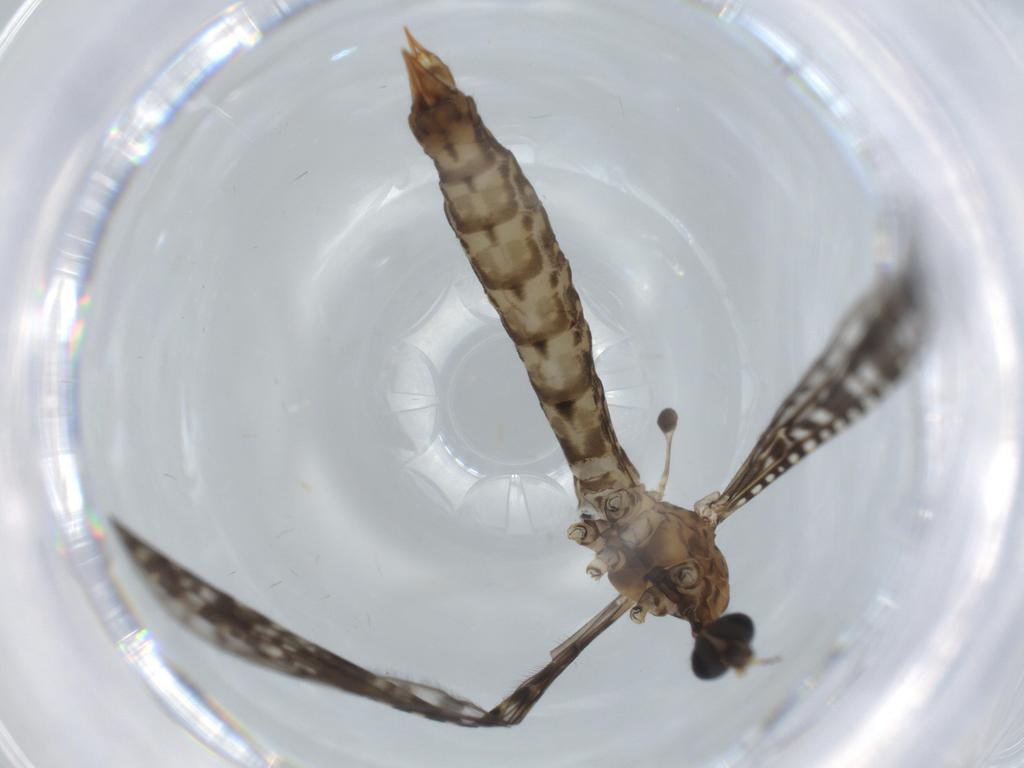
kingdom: Animalia
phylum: Arthropoda
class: Insecta
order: Diptera
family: Limoniidae
